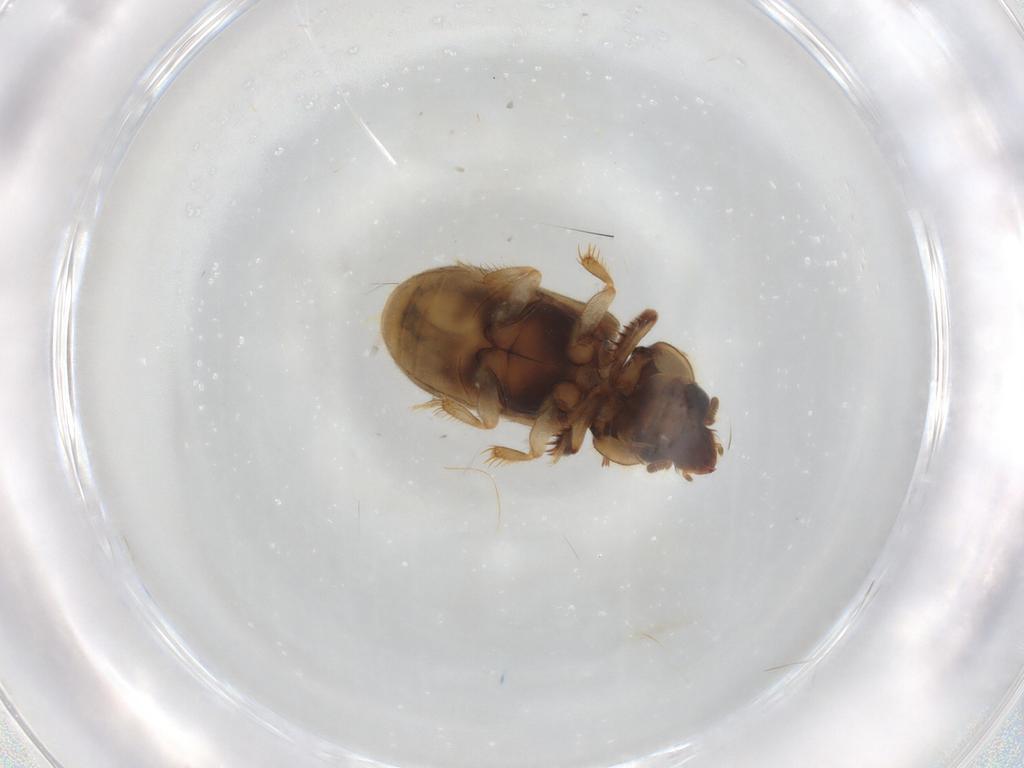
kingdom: Animalia
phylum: Arthropoda
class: Insecta
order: Coleoptera
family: Heteroceridae
